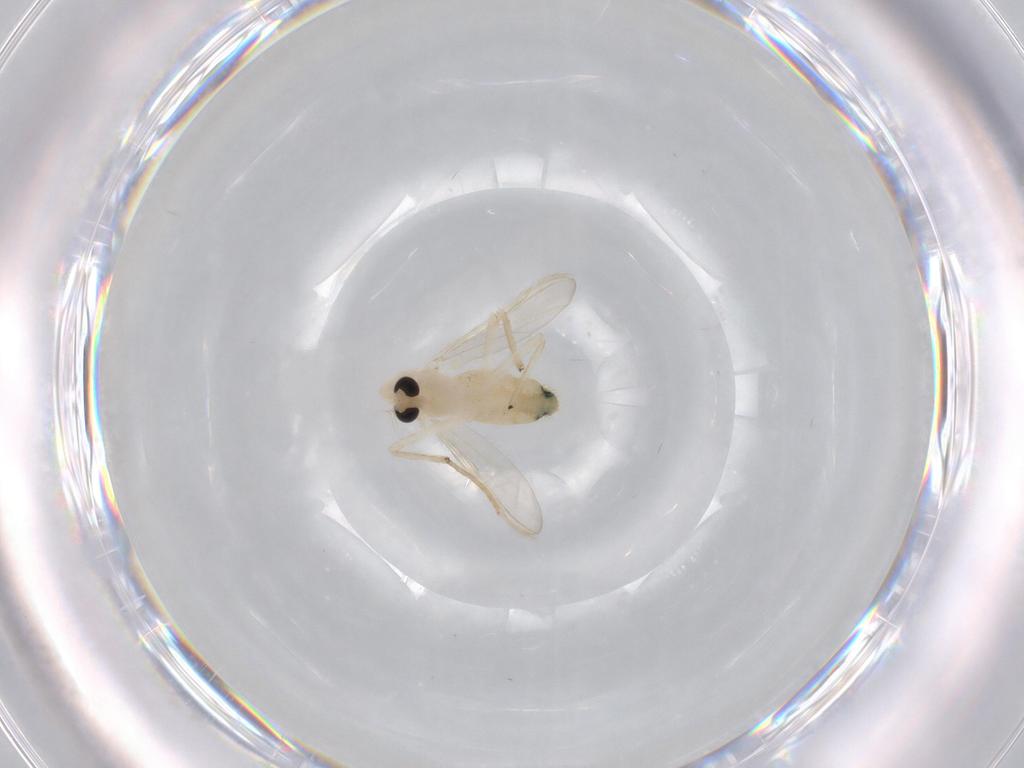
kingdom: Animalia
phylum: Arthropoda
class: Insecta
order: Diptera
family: Chironomidae
